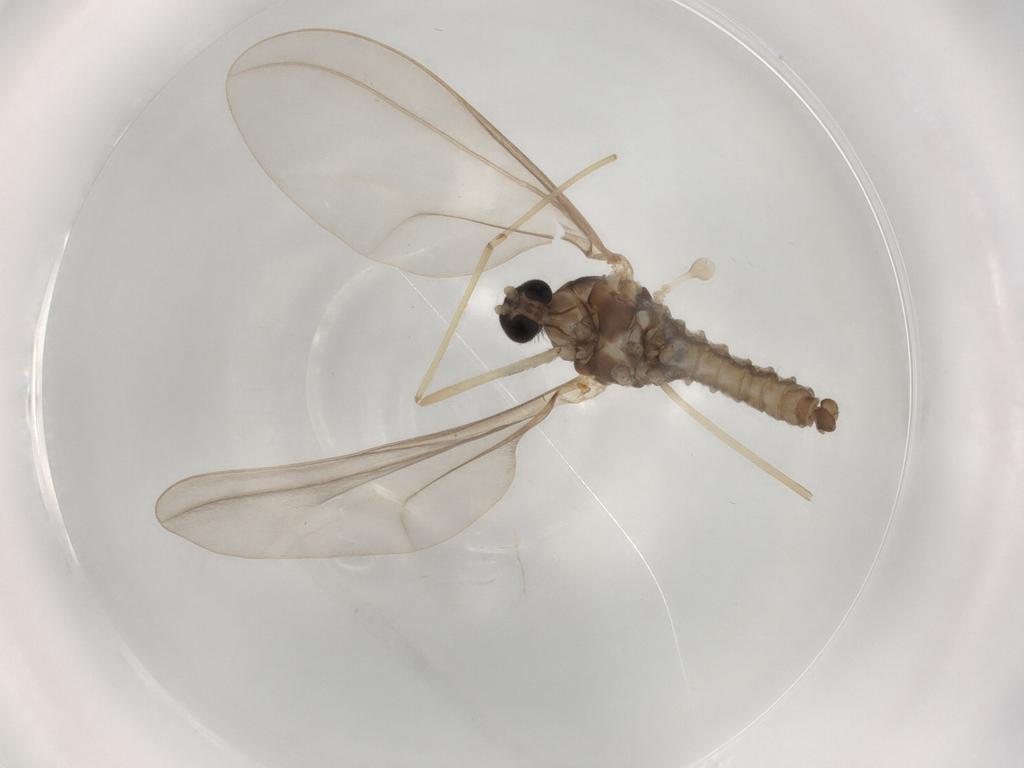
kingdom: Animalia
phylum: Arthropoda
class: Insecta
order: Diptera
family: Cecidomyiidae
